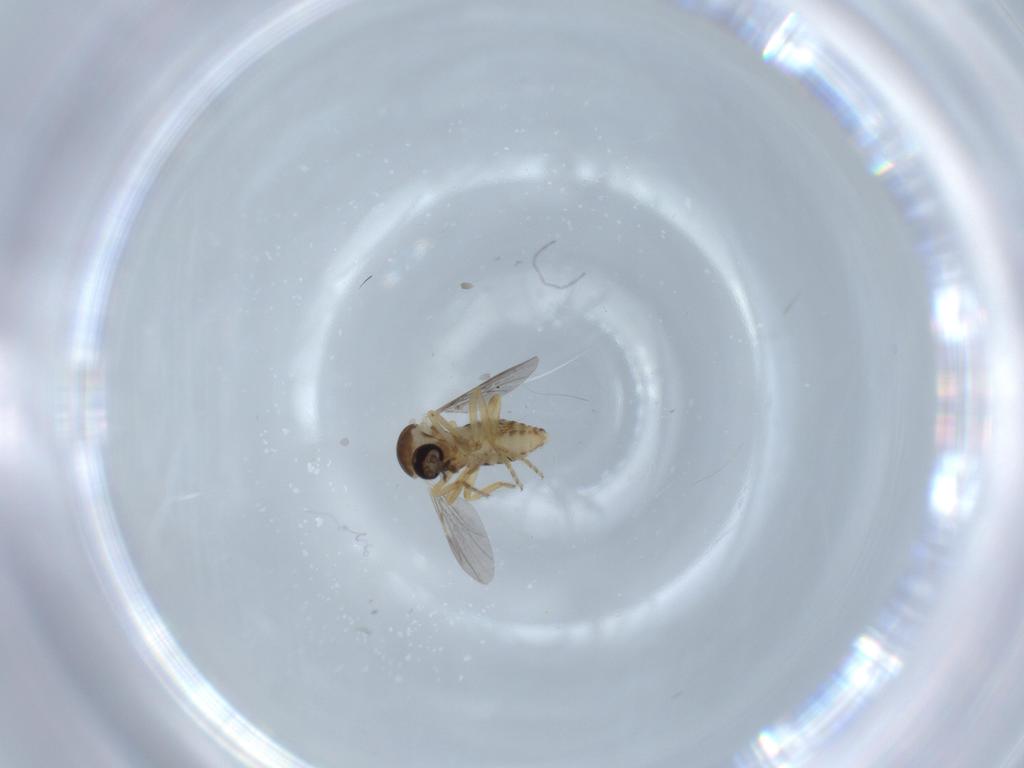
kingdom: Animalia
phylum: Arthropoda
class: Insecta
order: Diptera
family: Ceratopogonidae
